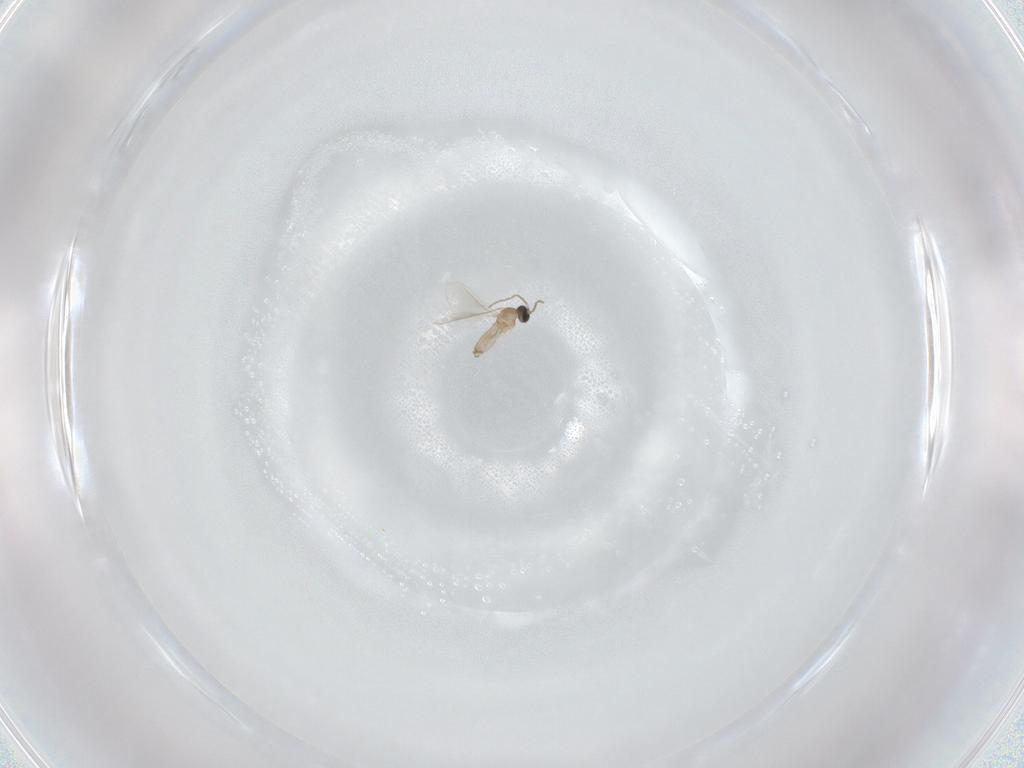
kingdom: Animalia
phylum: Arthropoda
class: Insecta
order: Diptera
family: Cecidomyiidae
